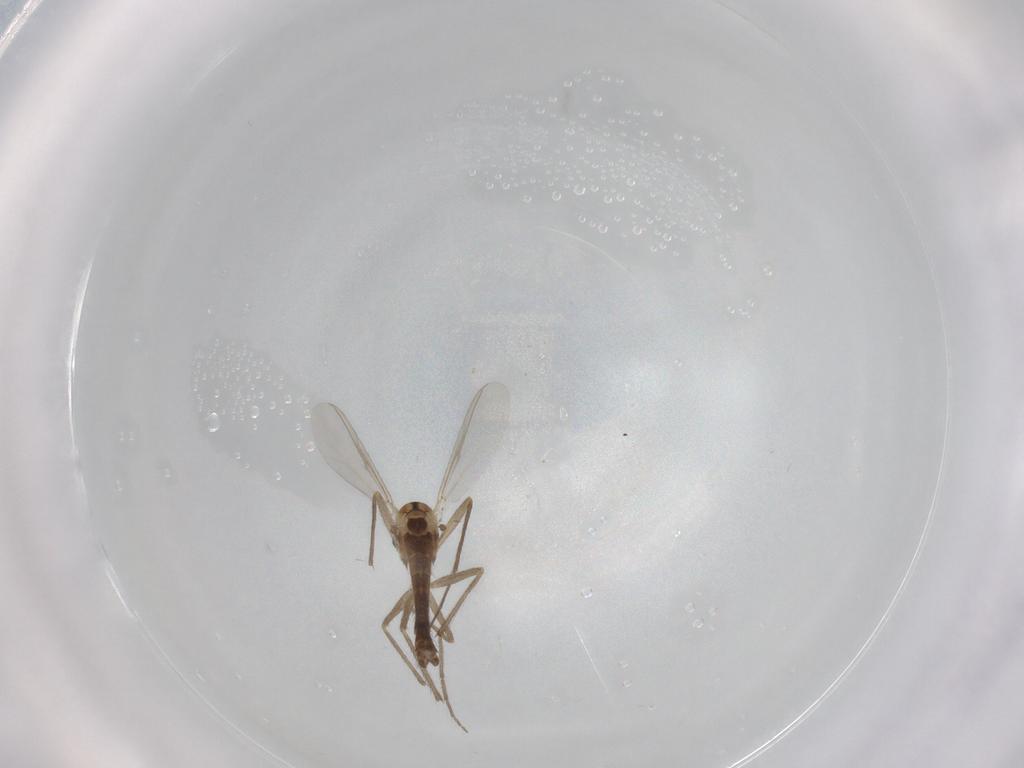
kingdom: Animalia
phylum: Arthropoda
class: Insecta
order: Diptera
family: Chironomidae
